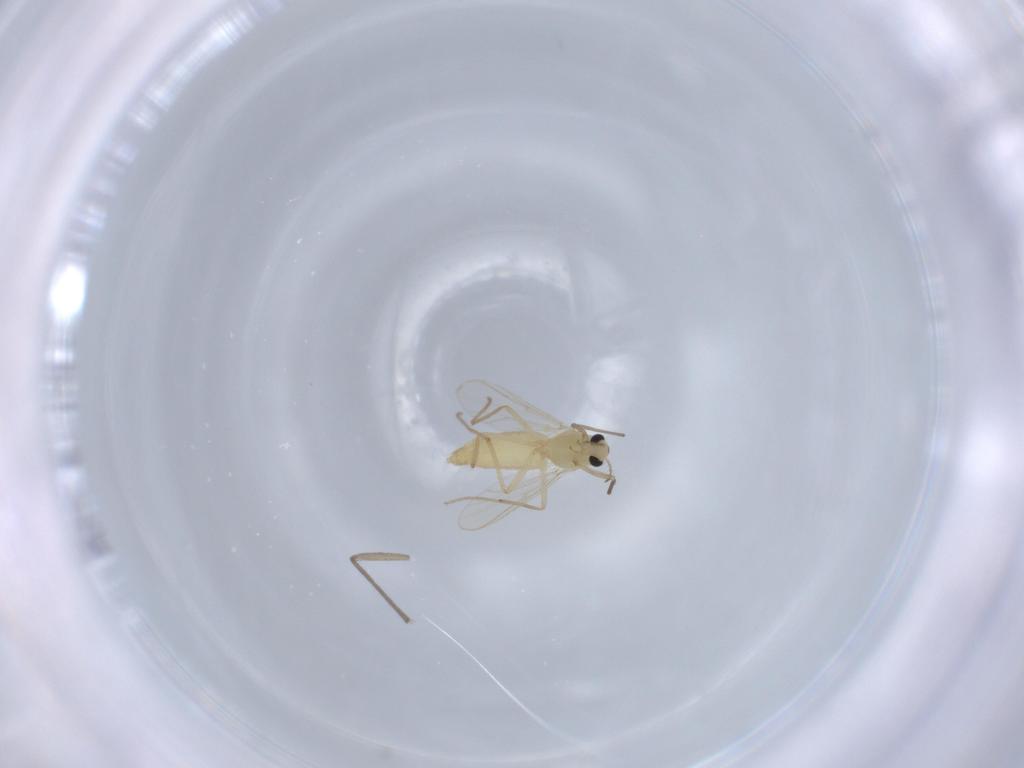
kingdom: Animalia
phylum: Arthropoda
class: Insecta
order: Diptera
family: Chironomidae
